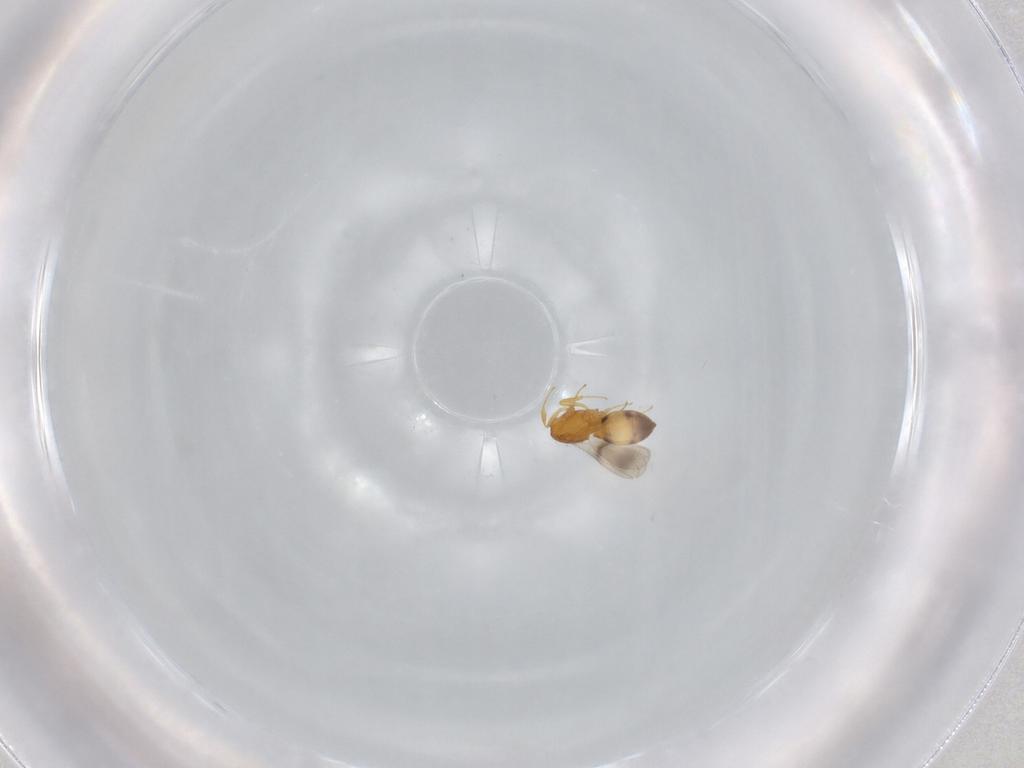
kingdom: Animalia
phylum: Arthropoda
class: Insecta
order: Hymenoptera
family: Scelionidae
